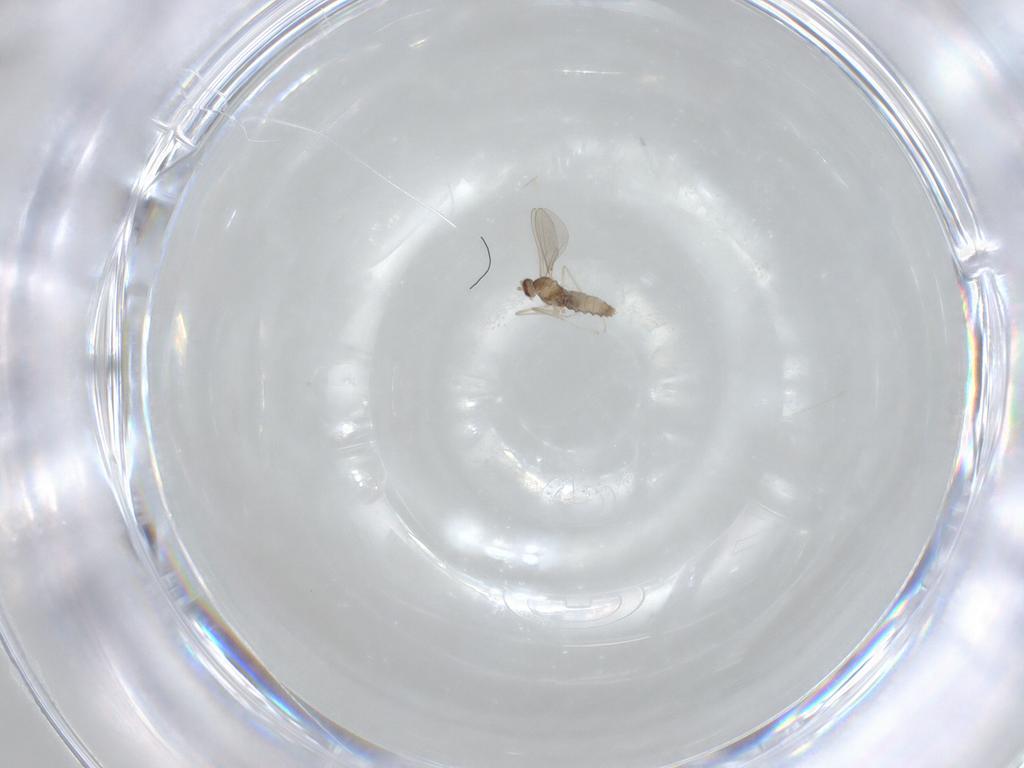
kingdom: Animalia
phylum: Arthropoda
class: Insecta
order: Diptera
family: Cecidomyiidae
